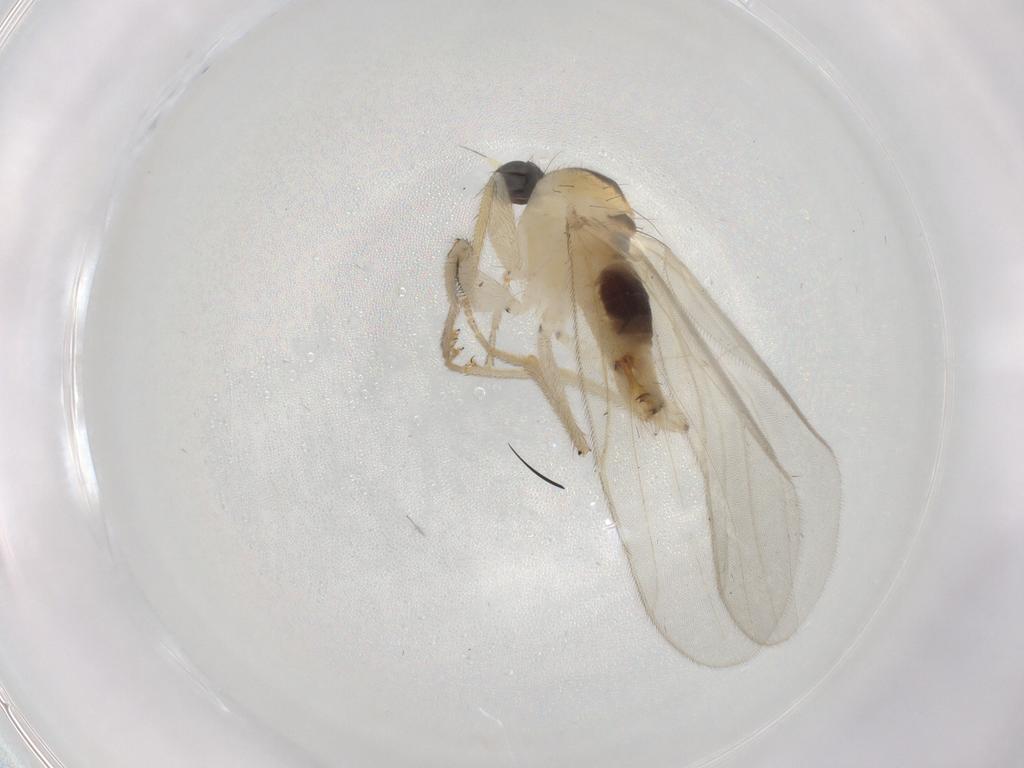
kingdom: Animalia
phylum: Arthropoda
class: Insecta
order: Diptera
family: Hybotidae
